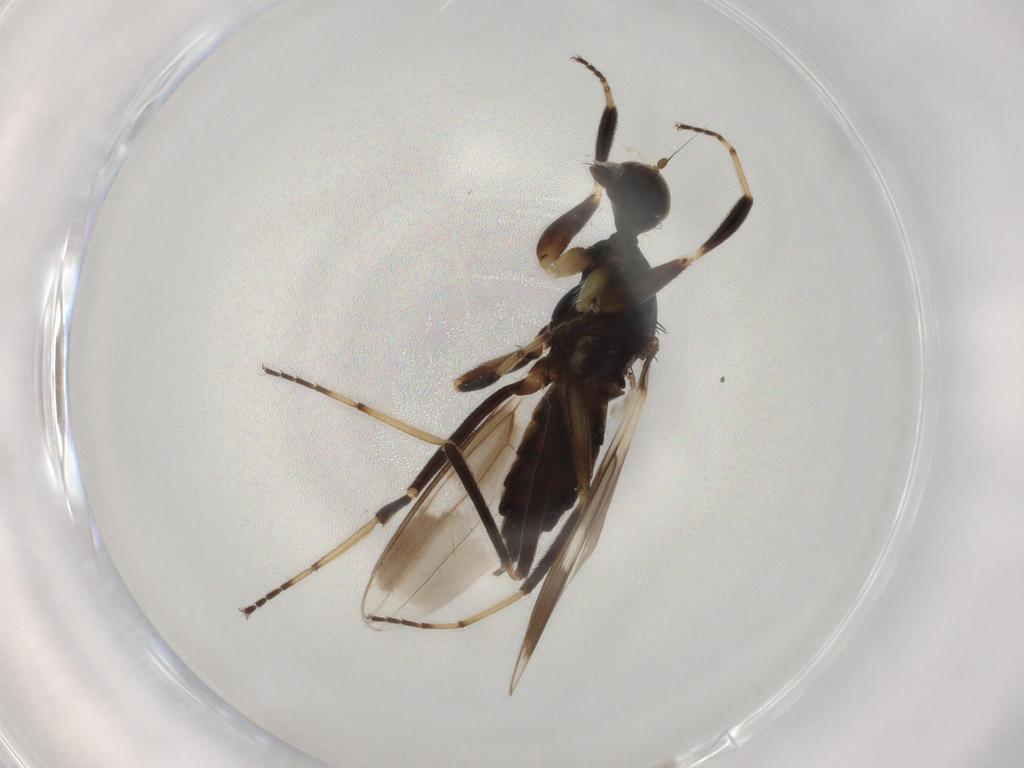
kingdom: Animalia
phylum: Arthropoda
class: Insecta
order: Diptera
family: Hybotidae
